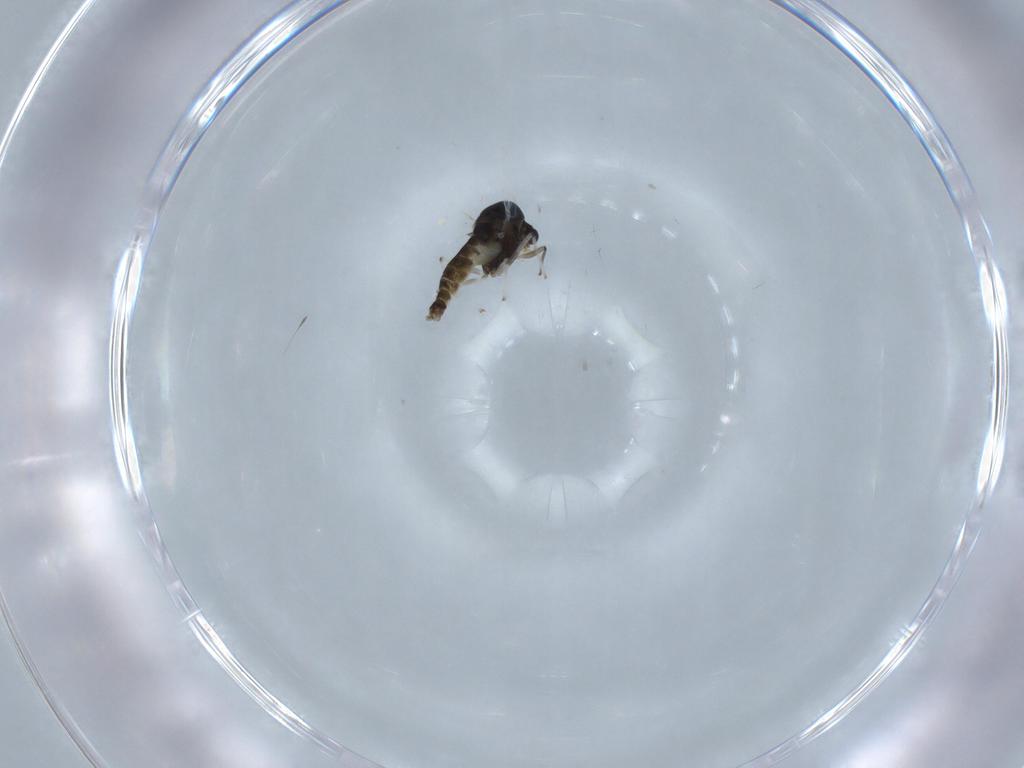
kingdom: Animalia
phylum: Arthropoda
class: Insecta
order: Diptera
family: Chironomidae
